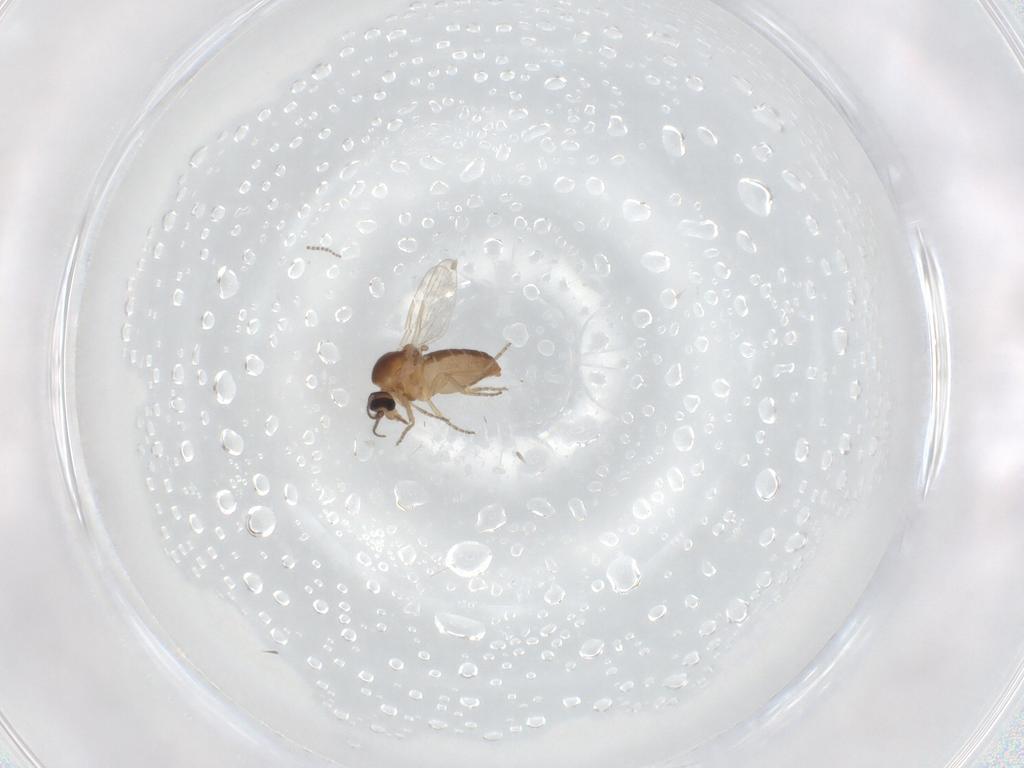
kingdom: Animalia
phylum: Arthropoda
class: Insecta
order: Diptera
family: Ceratopogonidae
